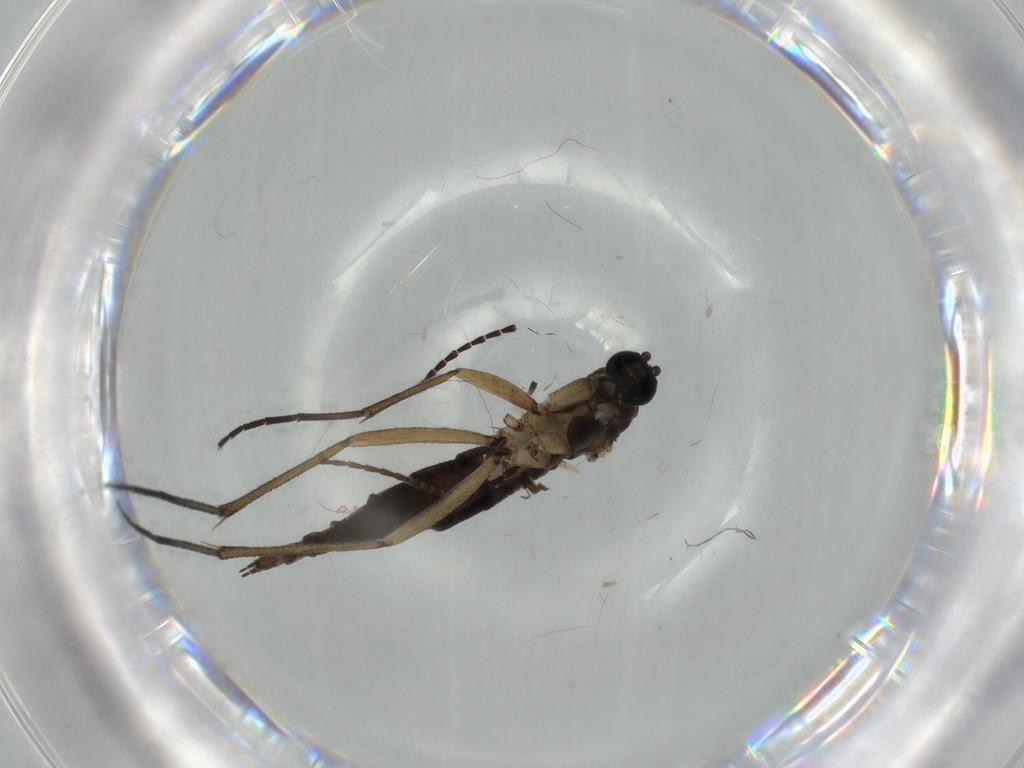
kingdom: Animalia
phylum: Arthropoda
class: Insecta
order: Diptera
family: Sciaridae
